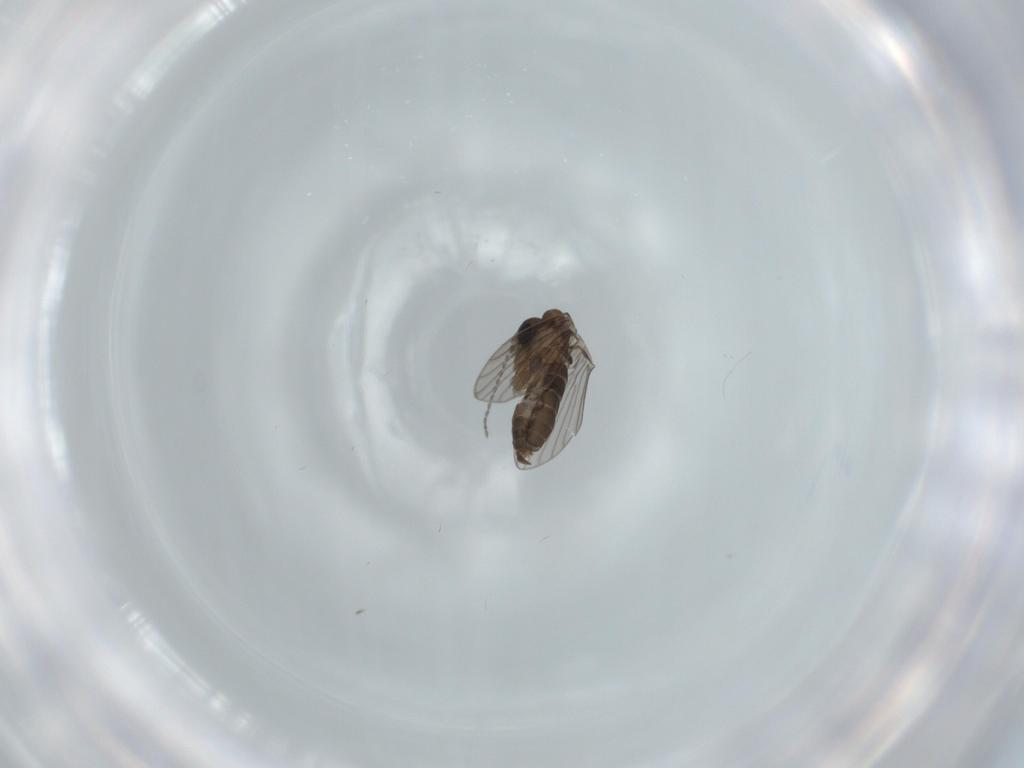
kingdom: Animalia
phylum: Arthropoda
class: Insecta
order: Diptera
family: Psychodidae
